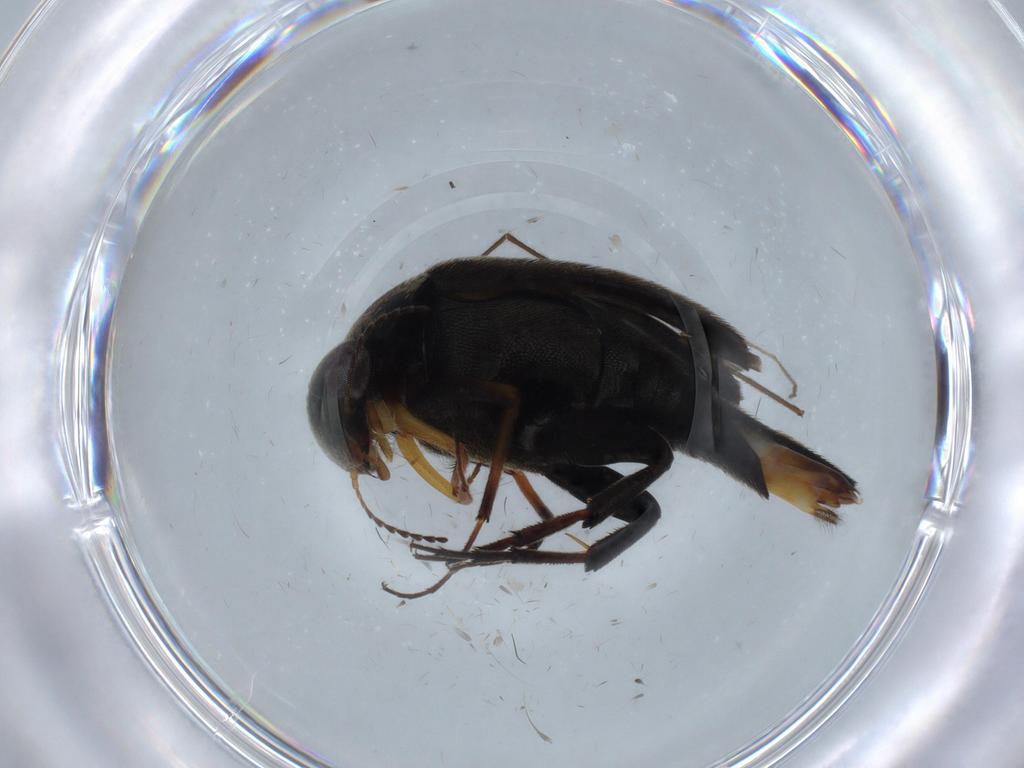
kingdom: Animalia
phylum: Arthropoda
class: Insecta
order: Coleoptera
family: Mordellidae
